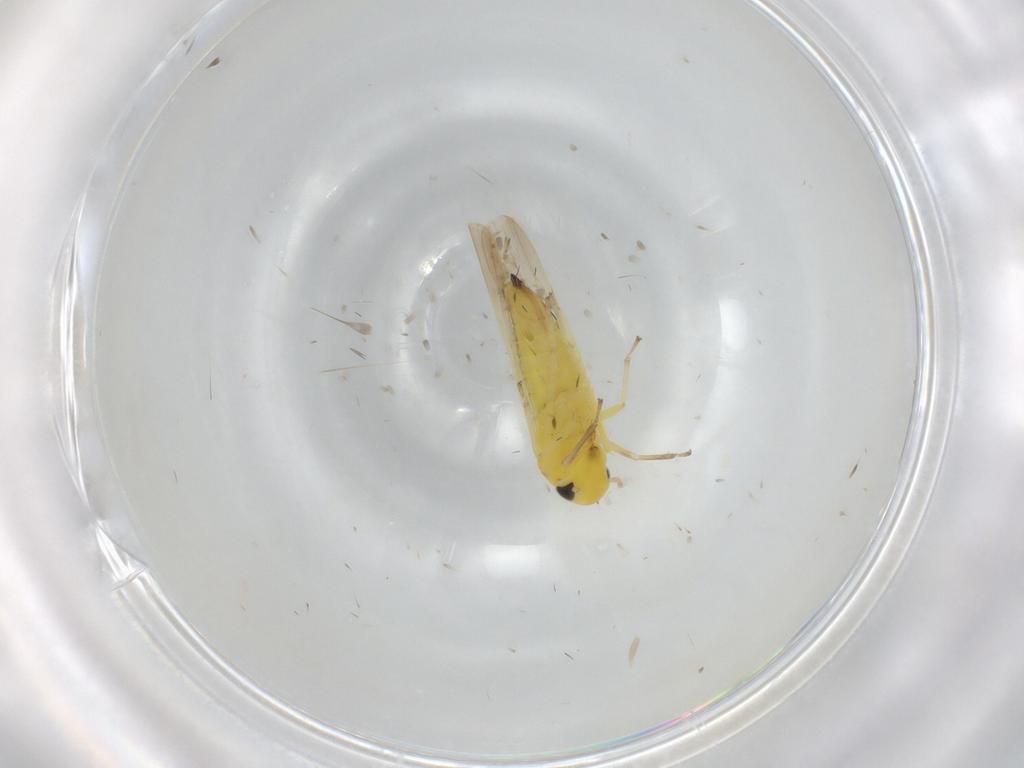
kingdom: Animalia
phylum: Arthropoda
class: Insecta
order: Hemiptera
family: Cicadellidae
